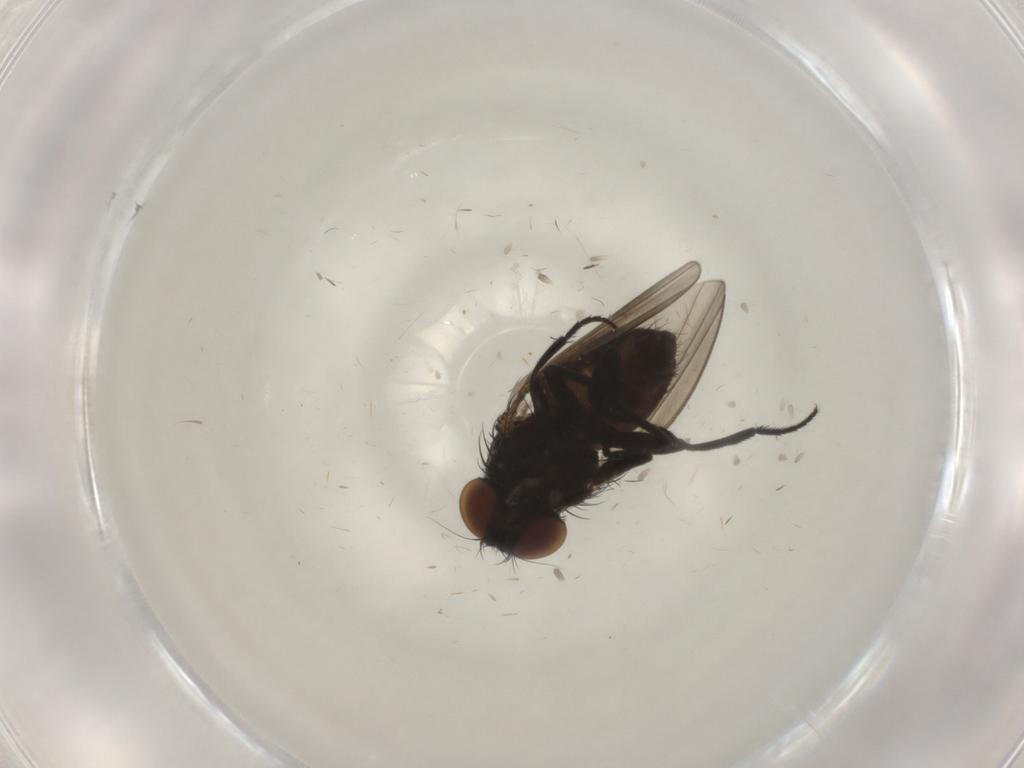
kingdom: Animalia
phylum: Arthropoda
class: Insecta
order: Diptera
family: Milichiidae
